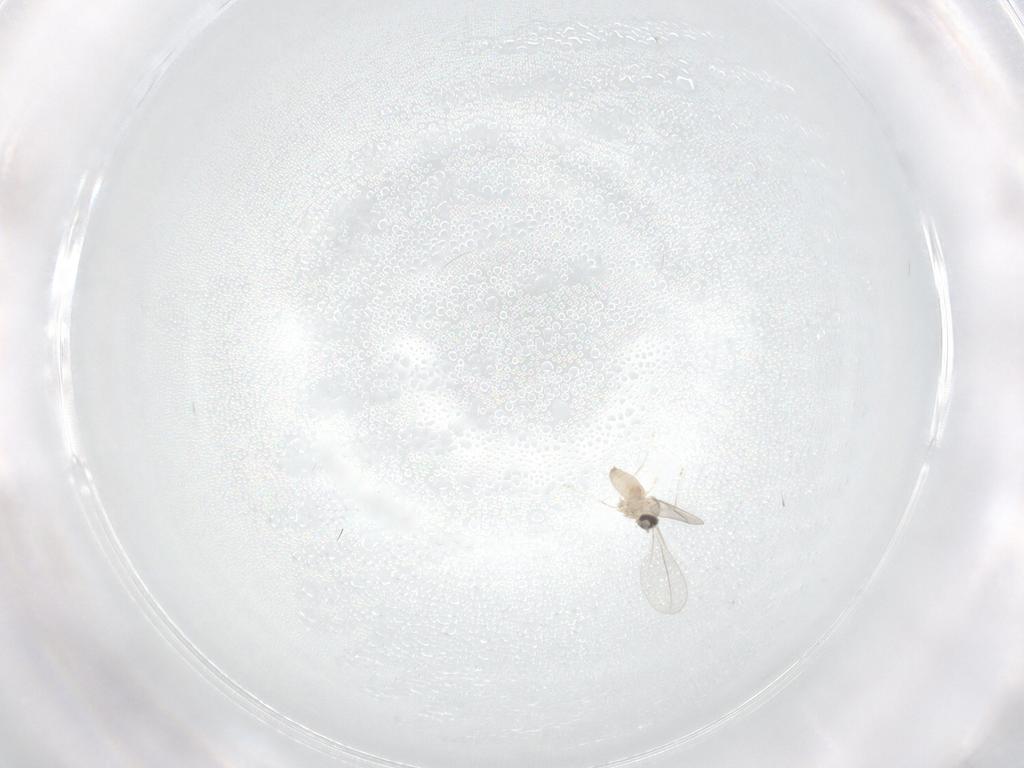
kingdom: Animalia
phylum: Arthropoda
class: Insecta
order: Diptera
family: Cecidomyiidae
